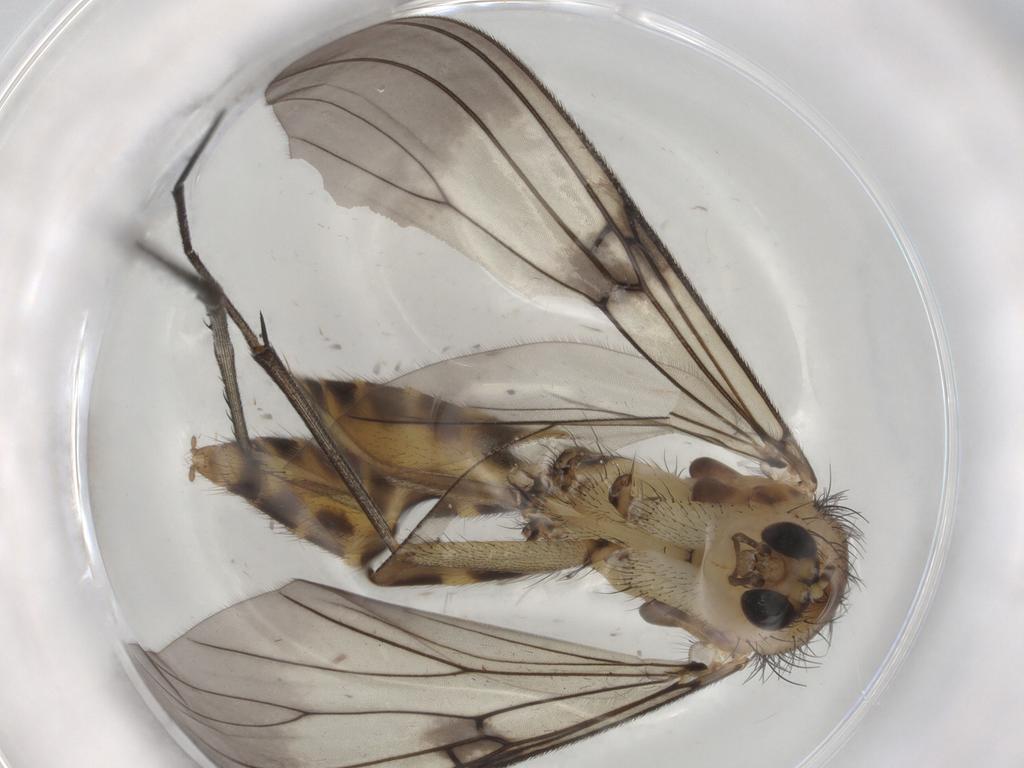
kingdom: Animalia
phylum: Arthropoda
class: Insecta
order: Diptera
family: Mycetophilidae
